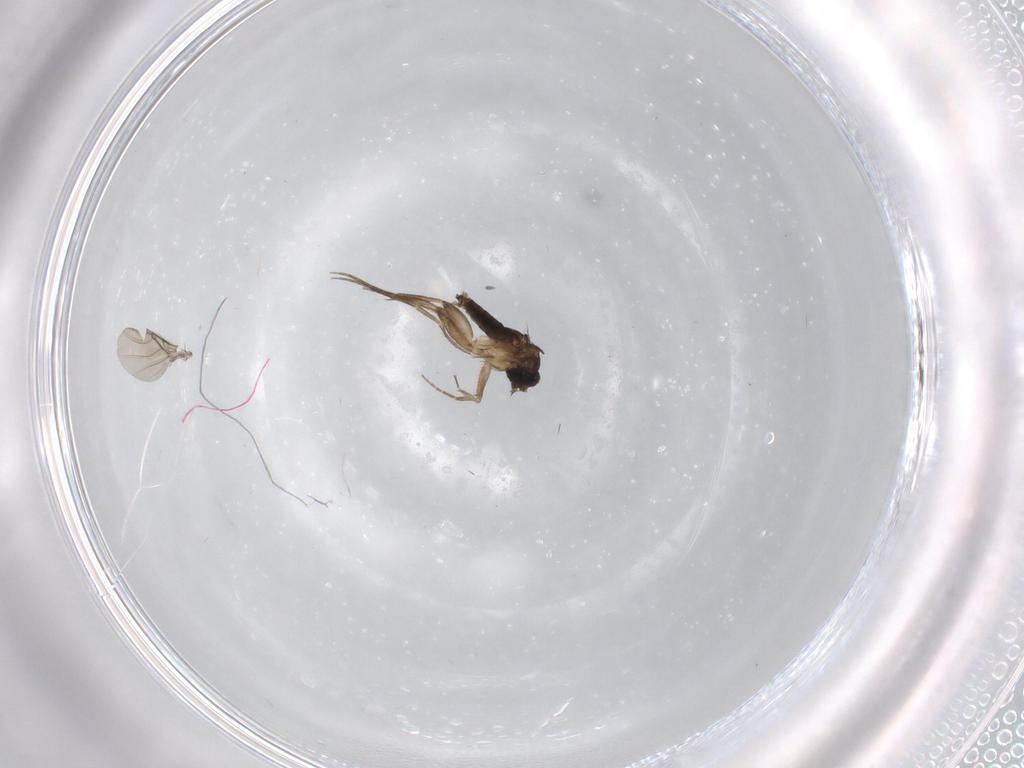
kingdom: Animalia
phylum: Arthropoda
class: Insecta
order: Diptera
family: Phoridae
